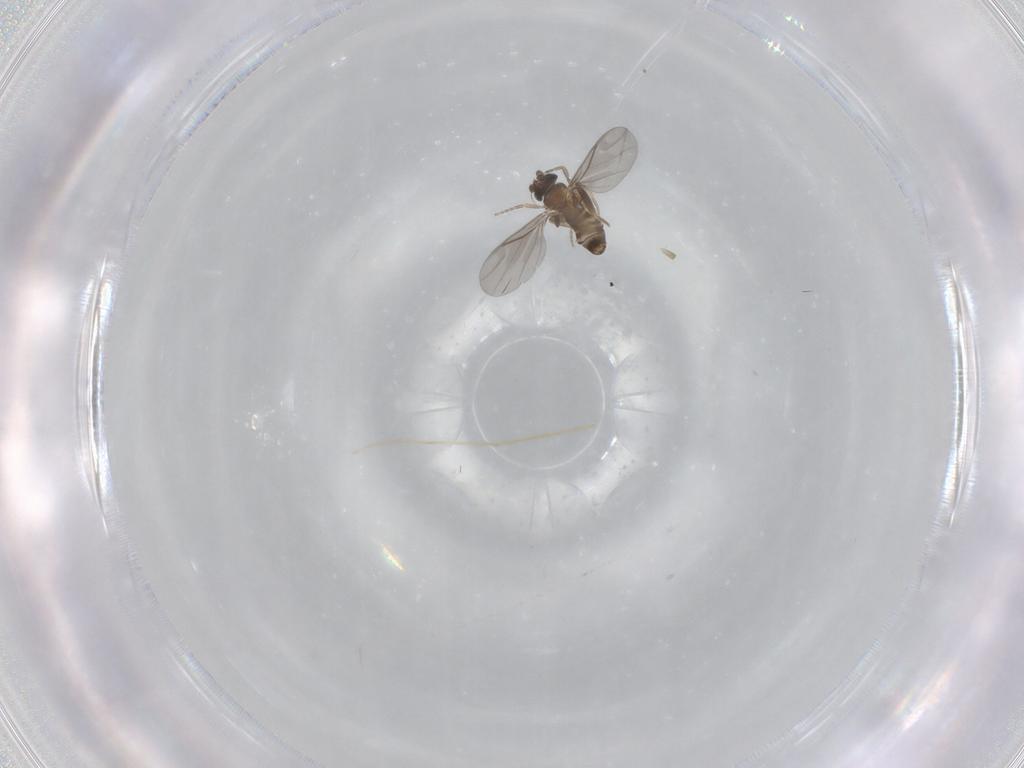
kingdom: Animalia
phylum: Arthropoda
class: Insecta
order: Diptera
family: Phoridae
